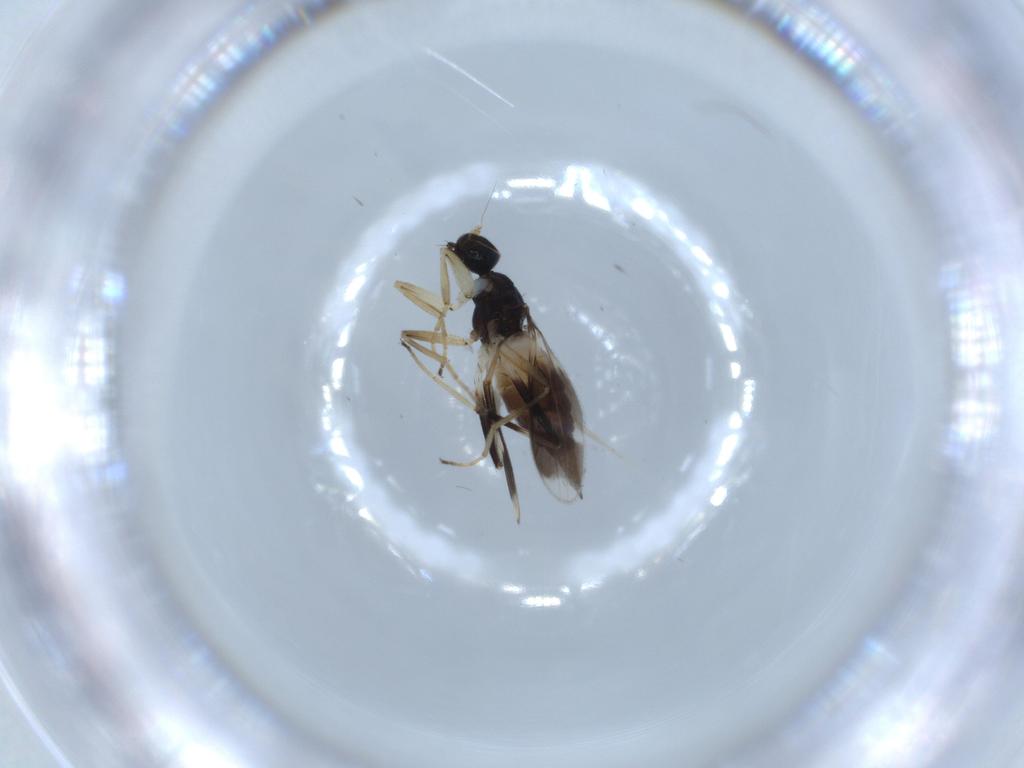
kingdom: Animalia
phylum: Arthropoda
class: Insecta
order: Diptera
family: Hybotidae
